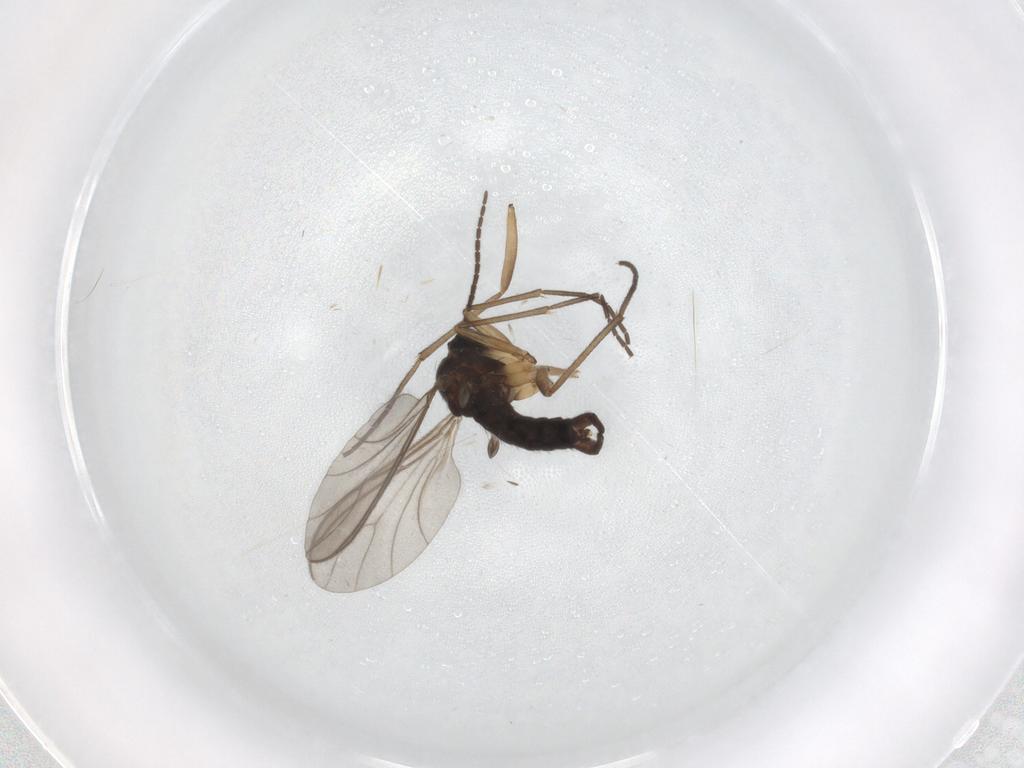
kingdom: Animalia
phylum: Arthropoda
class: Insecta
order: Diptera
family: Sciaridae
